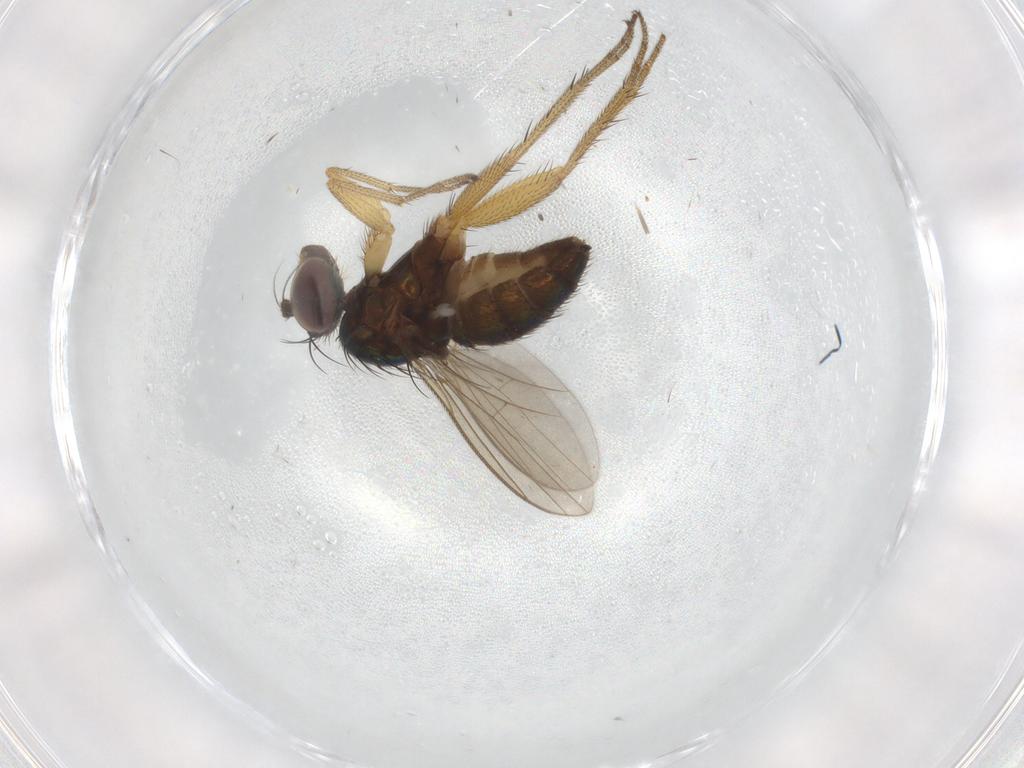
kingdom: Animalia
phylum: Arthropoda
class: Insecta
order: Diptera
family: Dolichopodidae
